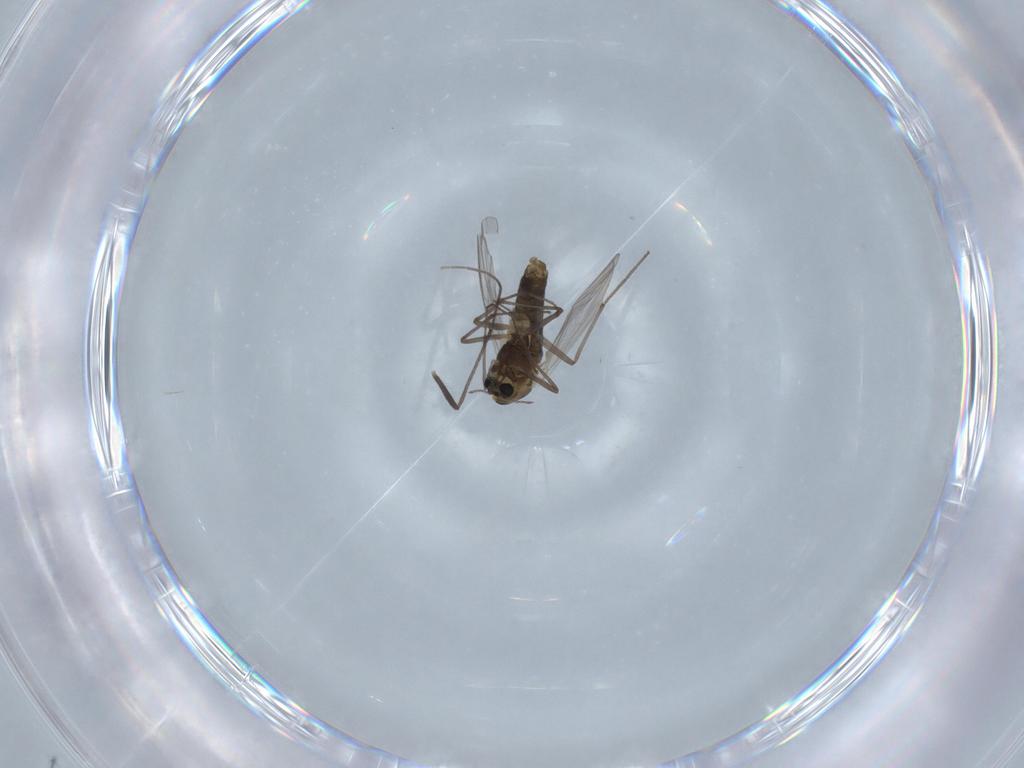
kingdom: Animalia
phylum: Arthropoda
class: Insecta
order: Diptera
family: Chironomidae
